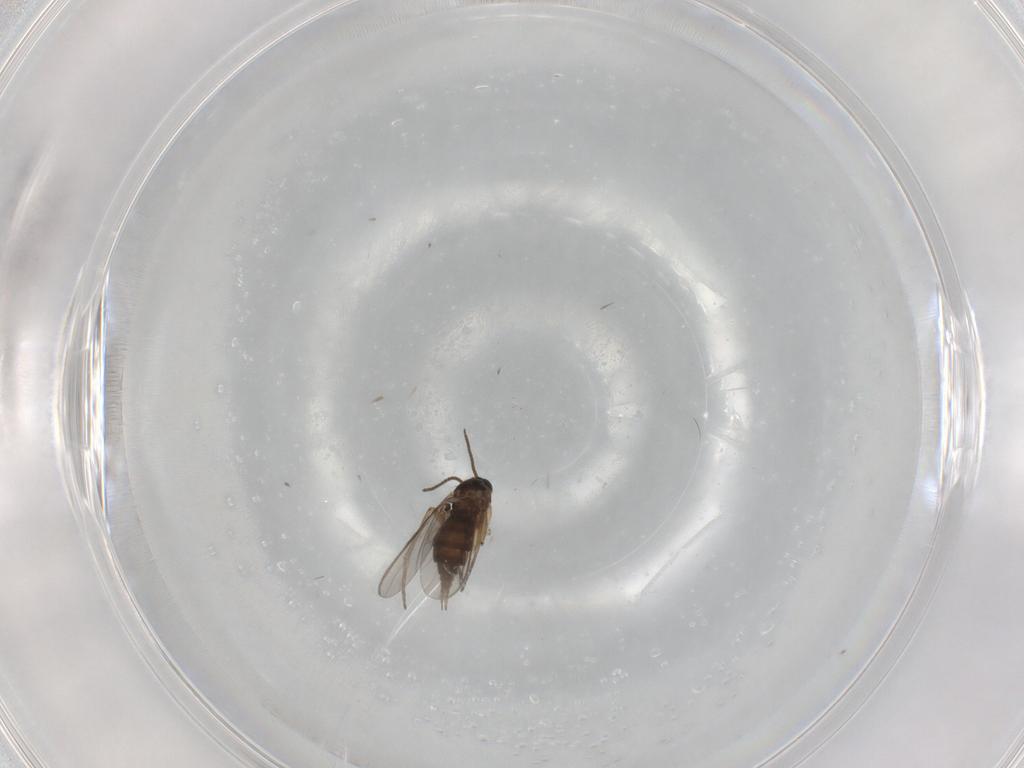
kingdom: Animalia
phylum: Arthropoda
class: Insecta
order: Diptera
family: Sciaridae
